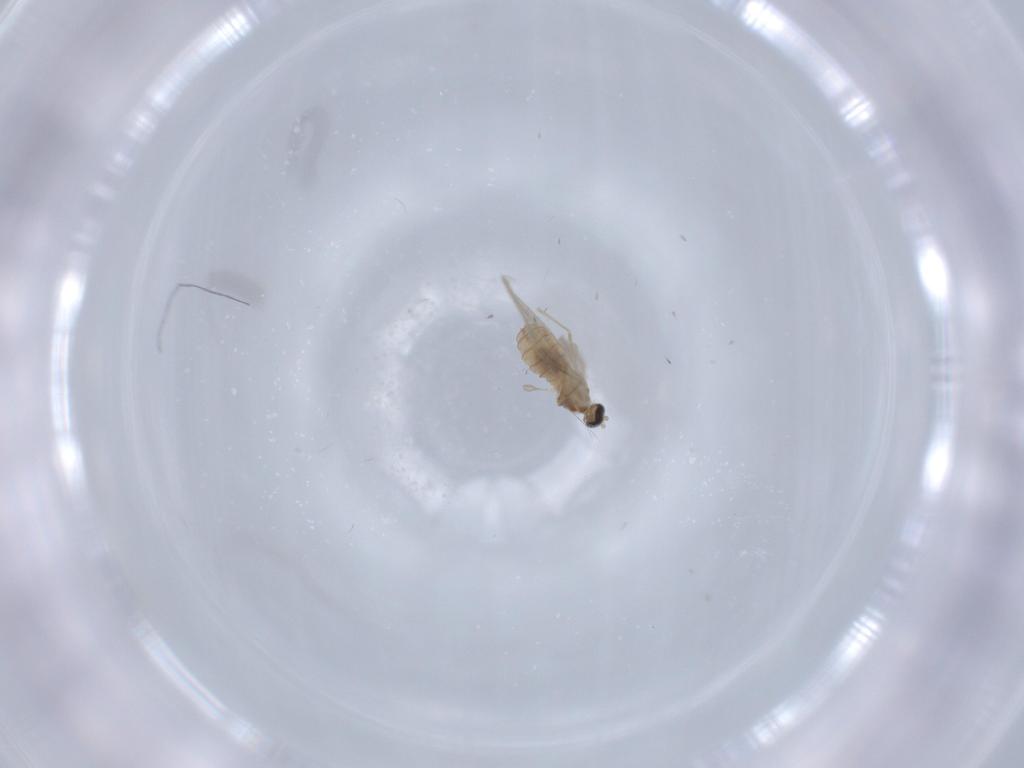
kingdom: Animalia
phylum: Arthropoda
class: Insecta
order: Diptera
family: Cecidomyiidae
